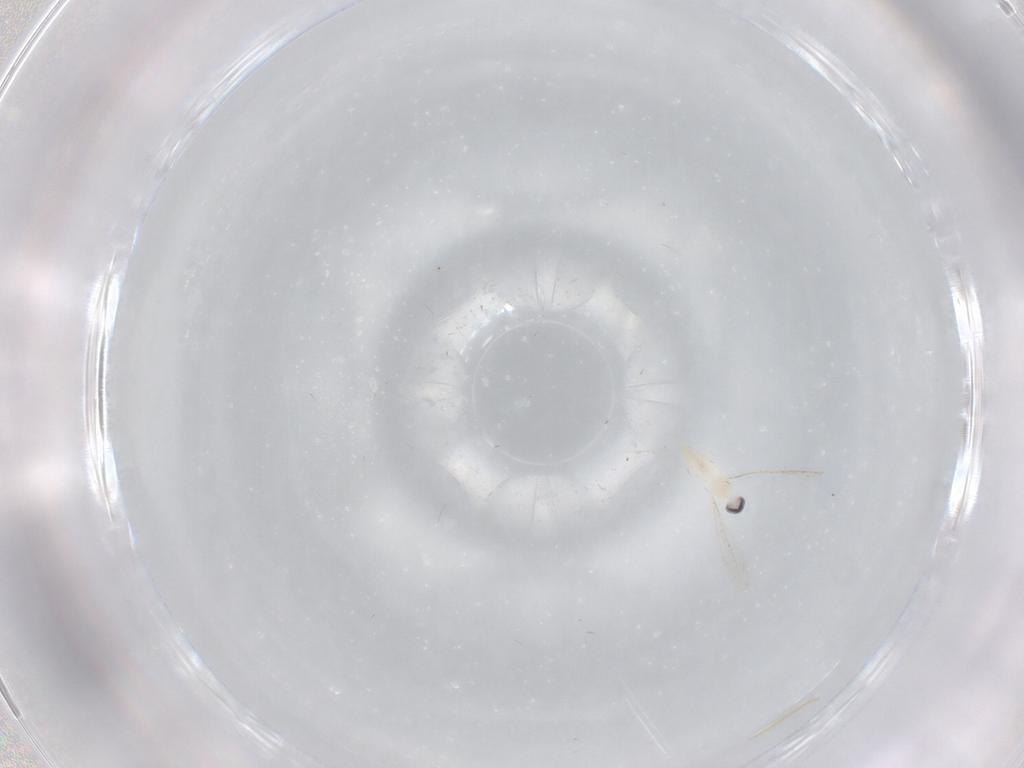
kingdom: Animalia
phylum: Arthropoda
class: Insecta
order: Diptera
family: Cecidomyiidae
